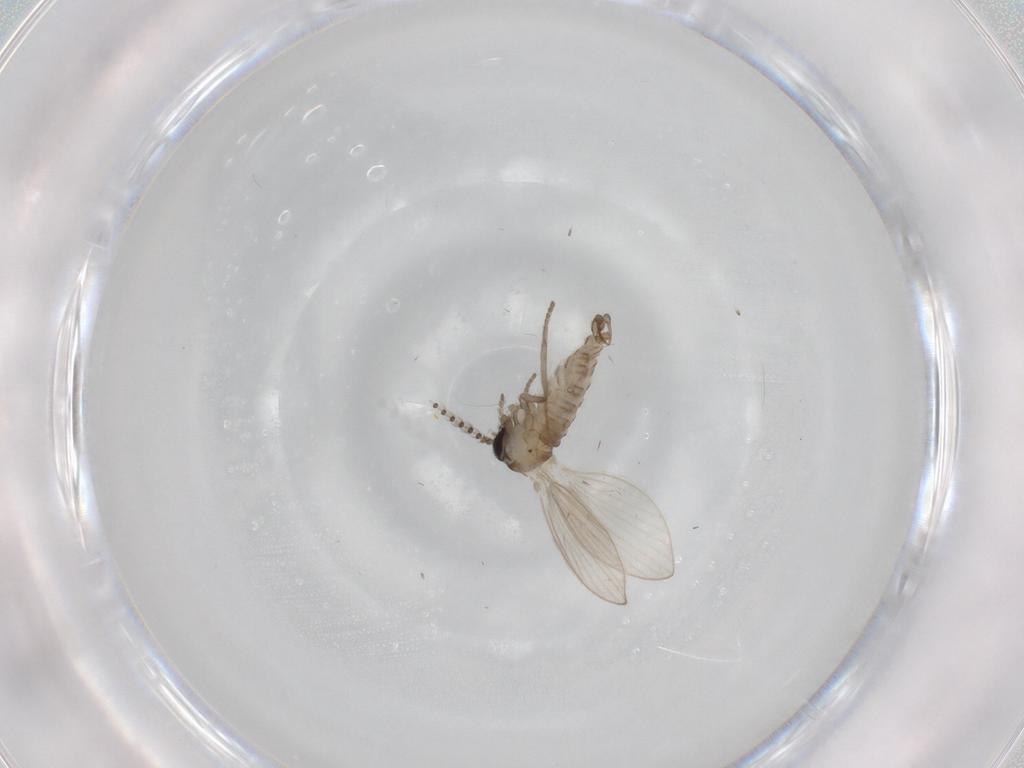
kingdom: Animalia
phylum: Arthropoda
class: Insecta
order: Diptera
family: Psychodidae
